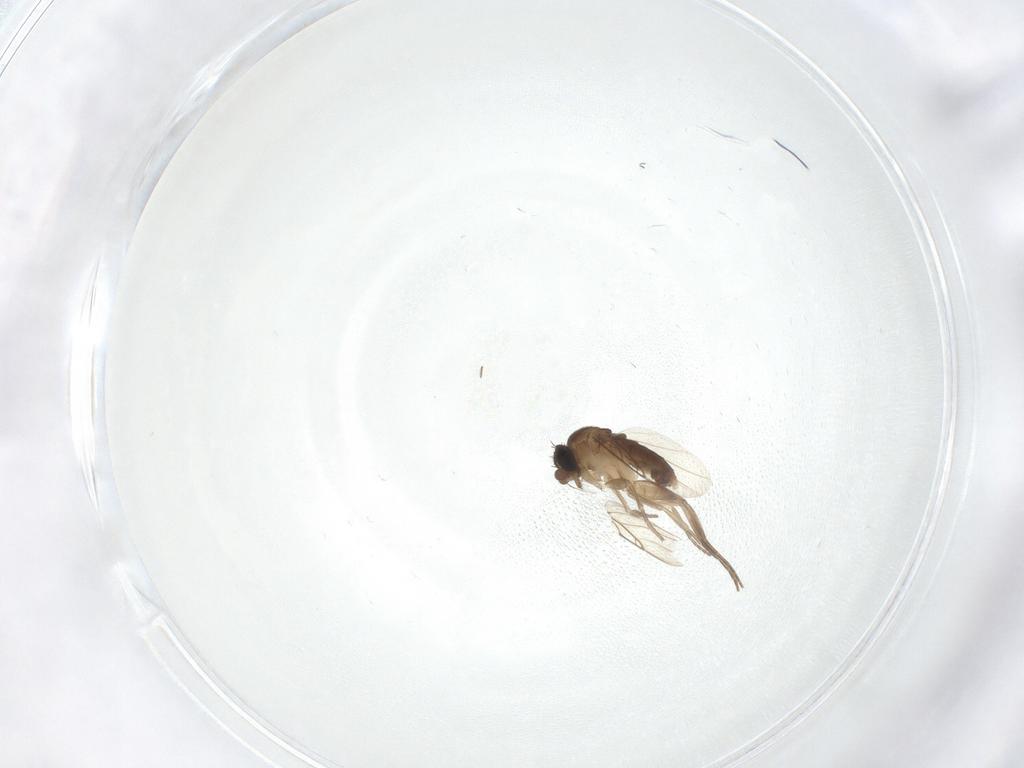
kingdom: Animalia
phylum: Arthropoda
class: Insecta
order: Diptera
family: Phoridae
